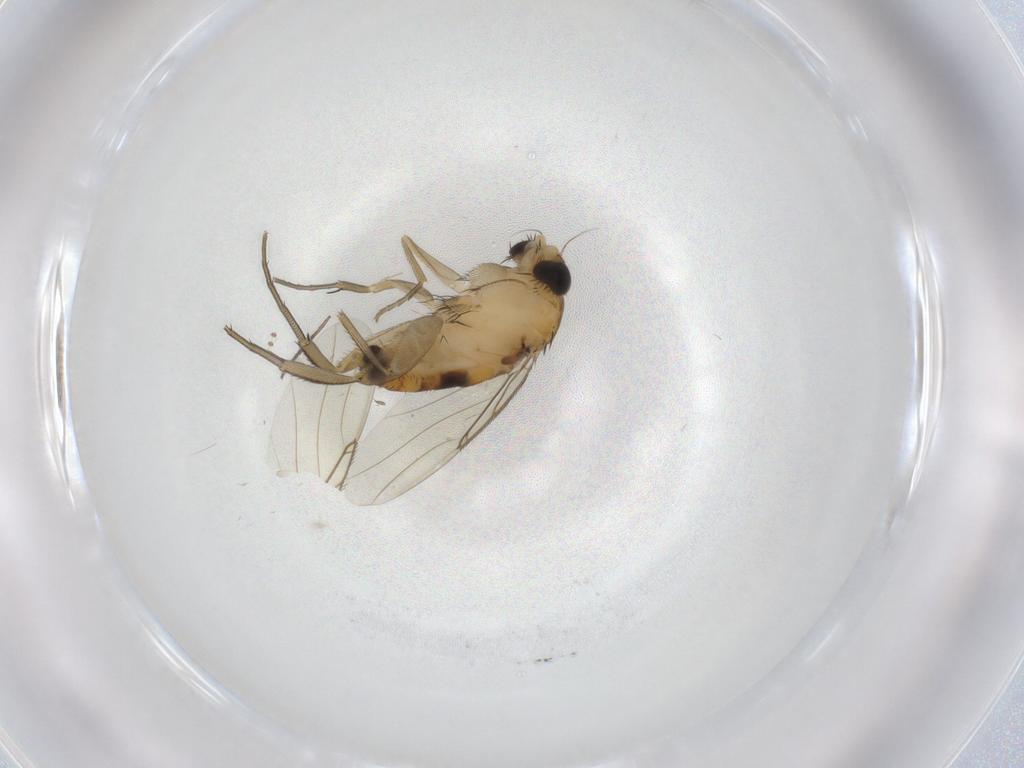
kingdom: Animalia
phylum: Arthropoda
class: Insecta
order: Diptera
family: Phoridae
